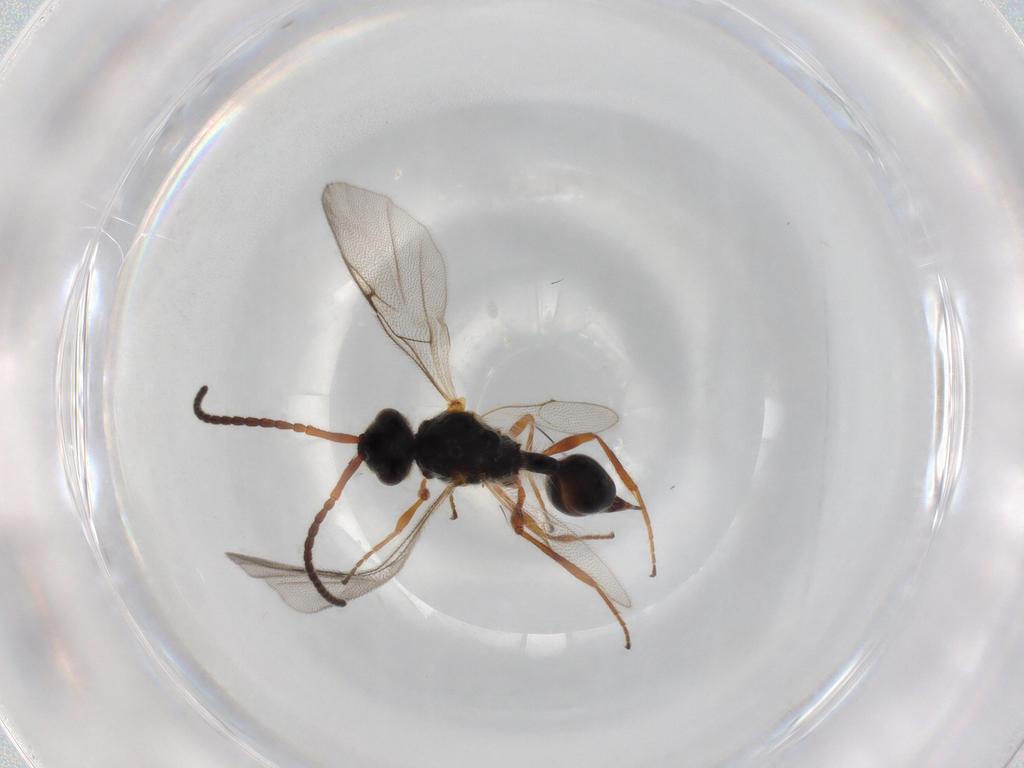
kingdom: Animalia
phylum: Arthropoda
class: Insecta
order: Hymenoptera
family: Diapriidae
